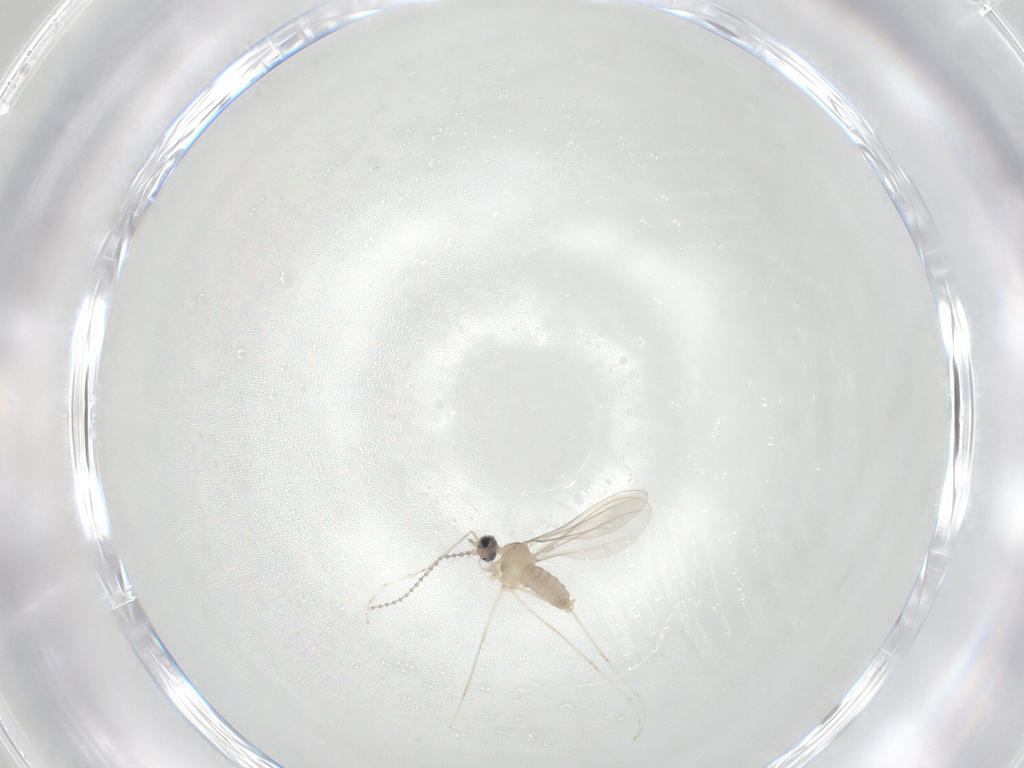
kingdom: Animalia
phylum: Arthropoda
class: Insecta
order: Diptera
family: Cecidomyiidae
